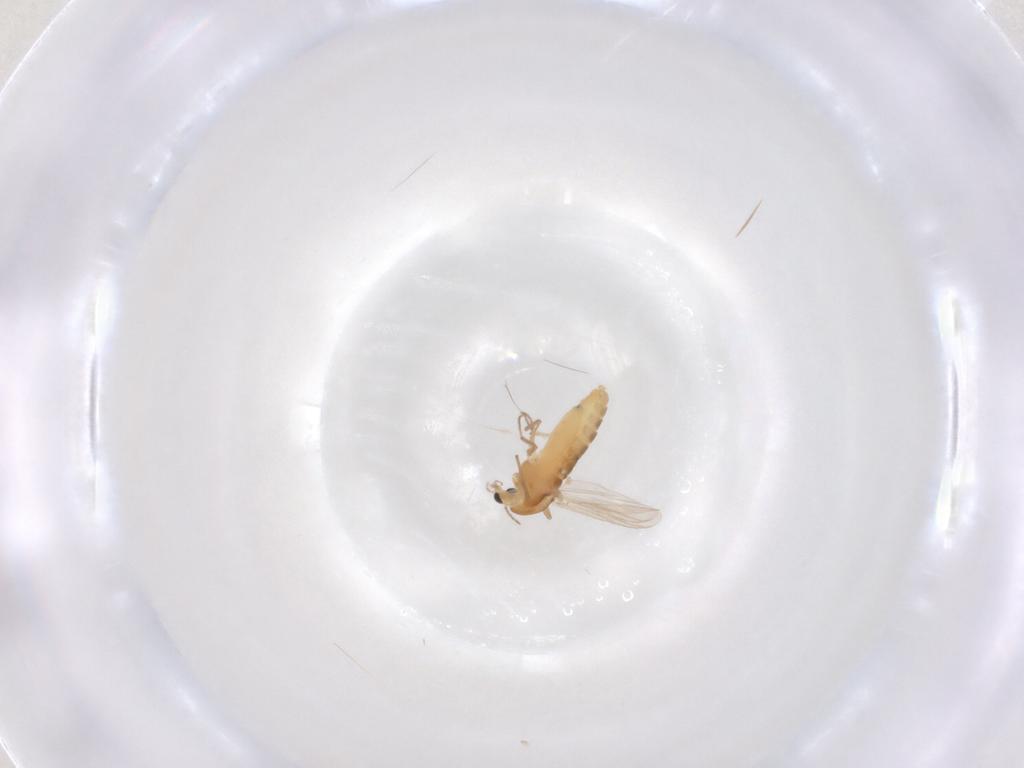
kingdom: Animalia
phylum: Arthropoda
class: Insecta
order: Diptera
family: Chironomidae
